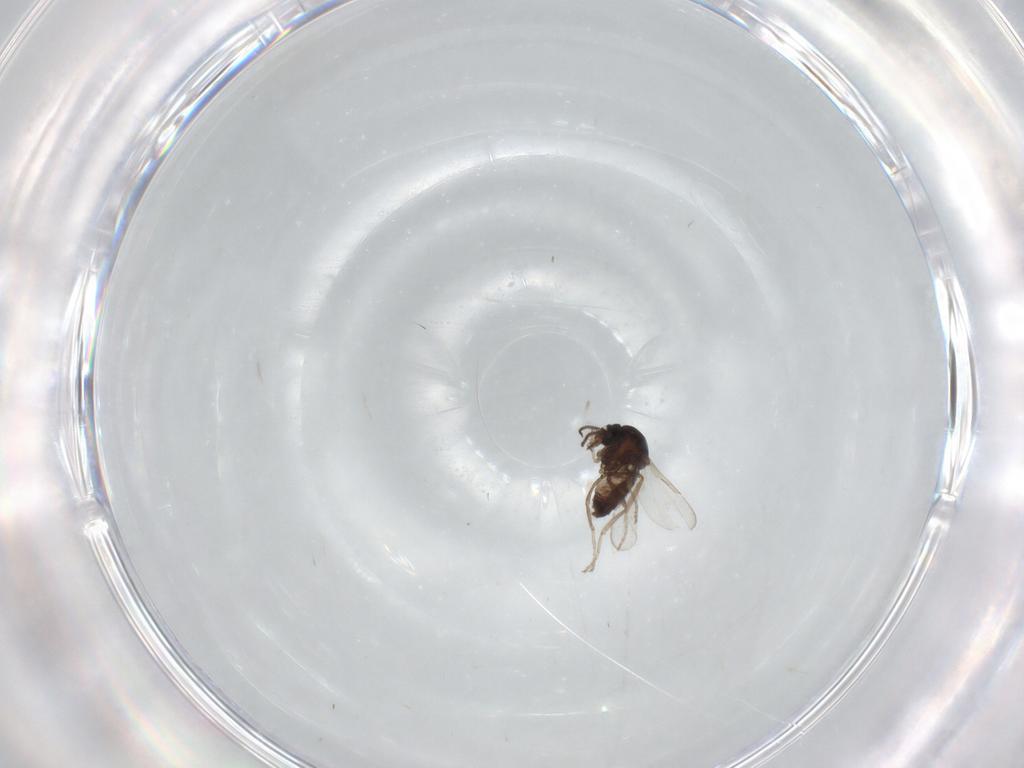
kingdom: Animalia
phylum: Arthropoda
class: Insecta
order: Diptera
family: Ceratopogonidae
